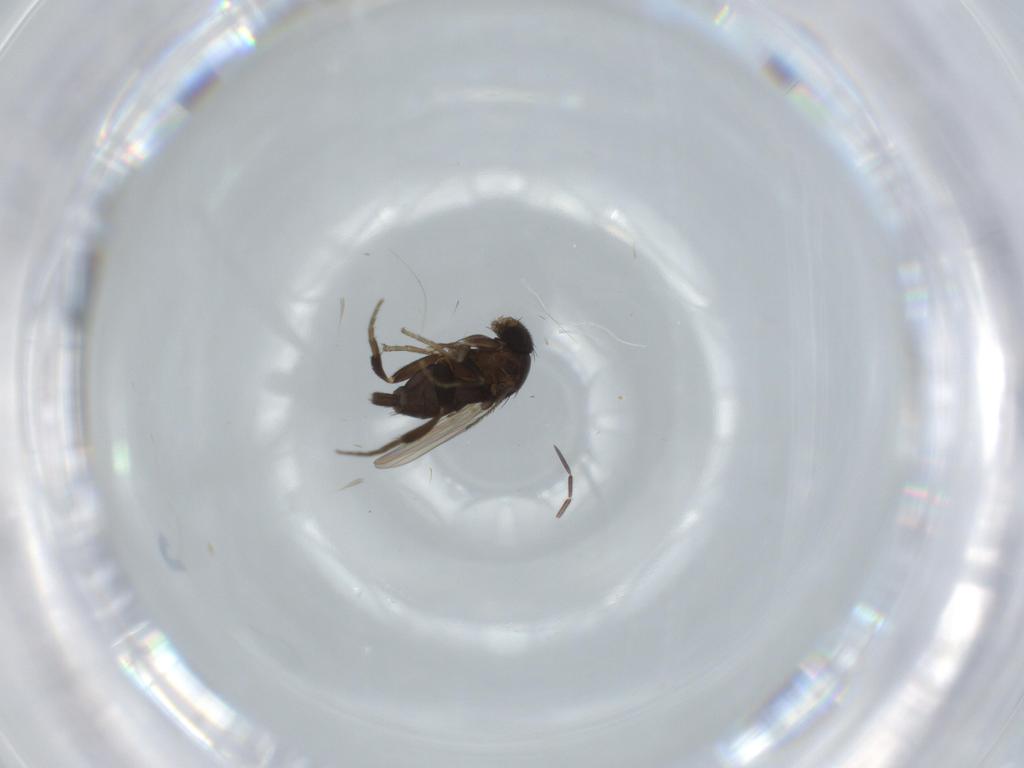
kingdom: Animalia
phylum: Arthropoda
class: Insecta
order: Diptera
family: Phoridae
